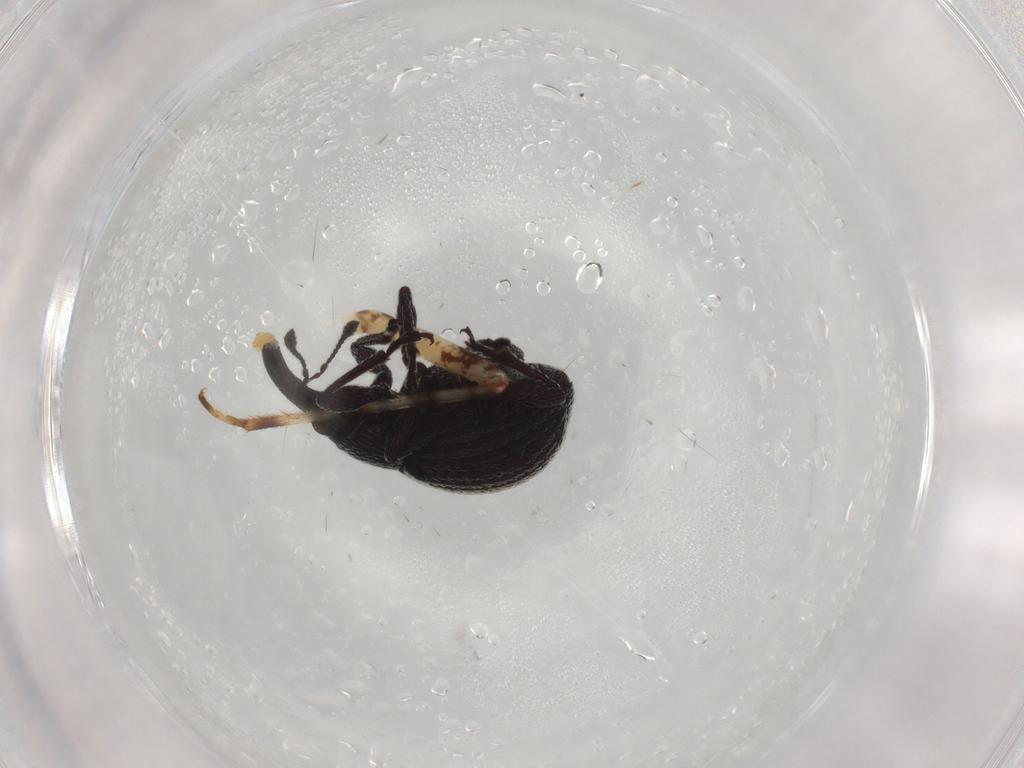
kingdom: Animalia
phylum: Arthropoda
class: Insecta
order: Coleoptera
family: Brentidae
